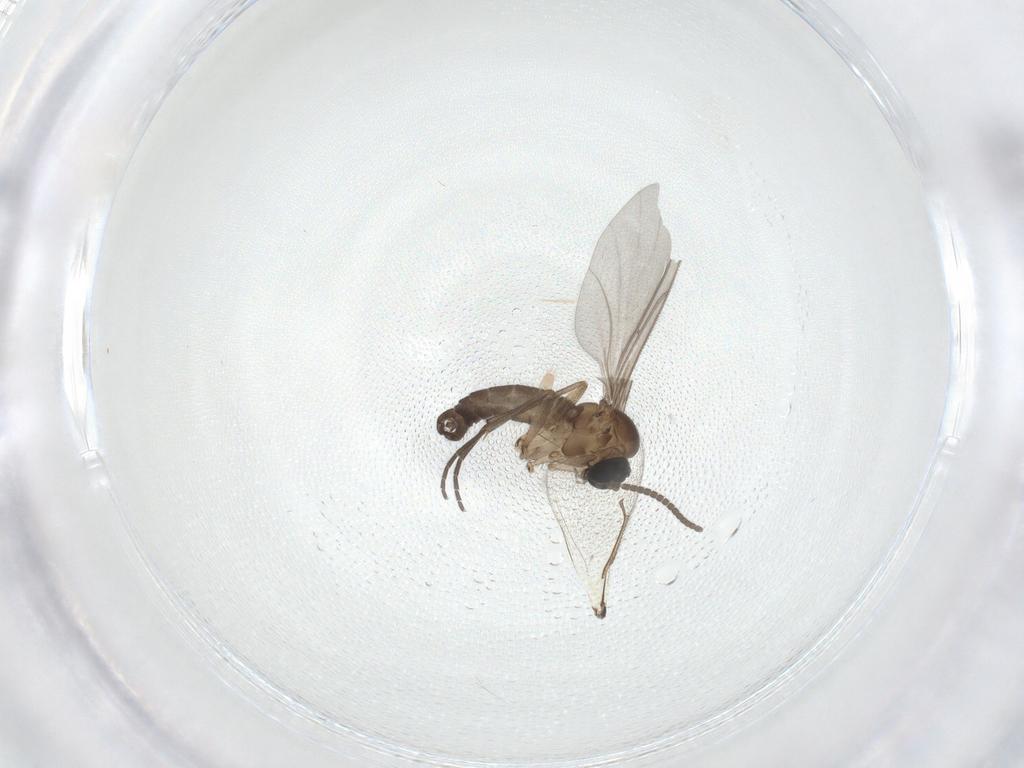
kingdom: Animalia
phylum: Arthropoda
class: Insecta
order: Diptera
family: Sciaridae
